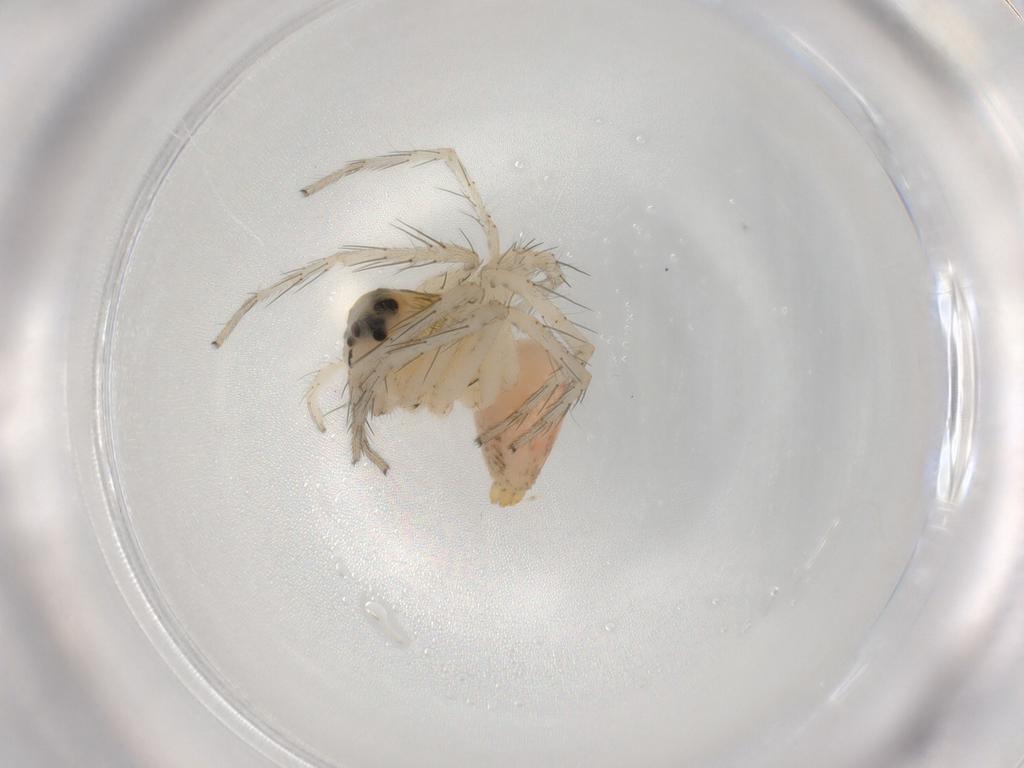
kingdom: Animalia
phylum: Arthropoda
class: Arachnida
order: Araneae
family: Oxyopidae
